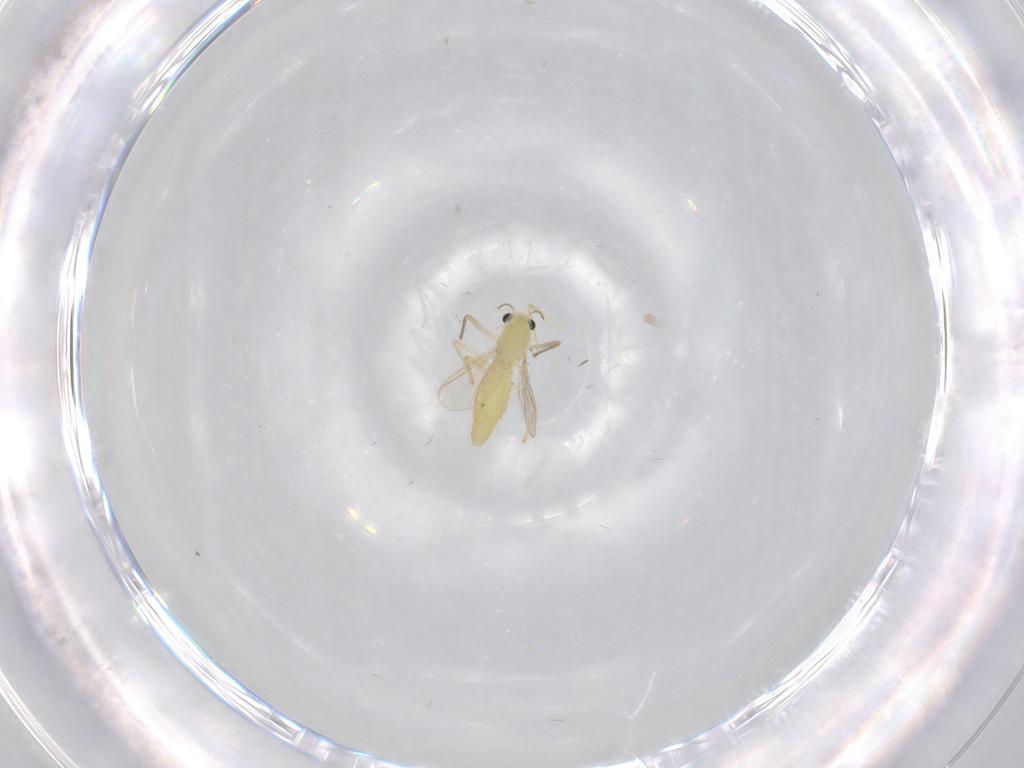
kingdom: Animalia
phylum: Arthropoda
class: Insecta
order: Diptera
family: Chironomidae
